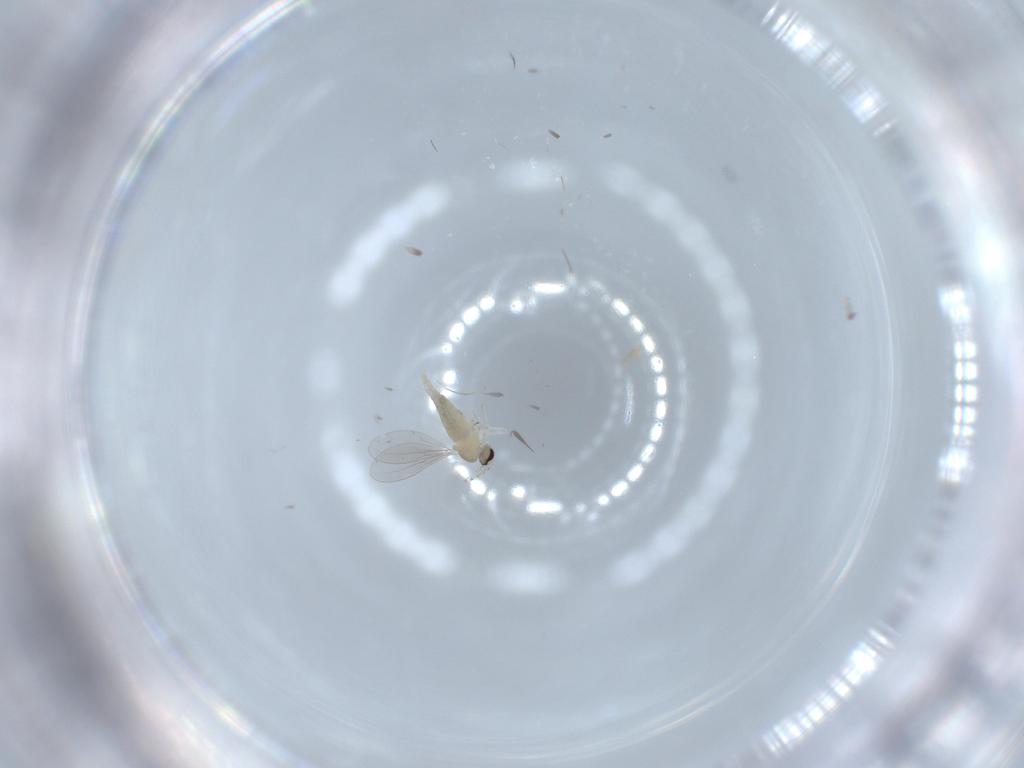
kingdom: Animalia
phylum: Arthropoda
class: Insecta
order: Diptera
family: Cecidomyiidae
